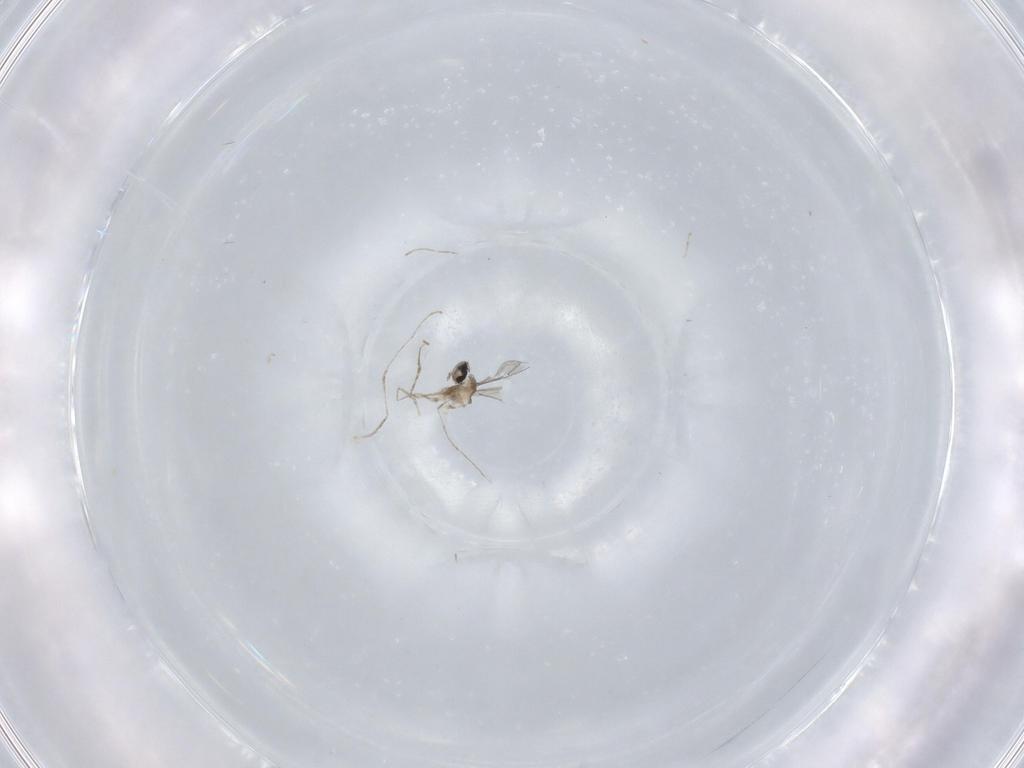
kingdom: Animalia
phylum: Arthropoda
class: Insecta
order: Diptera
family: Cecidomyiidae
